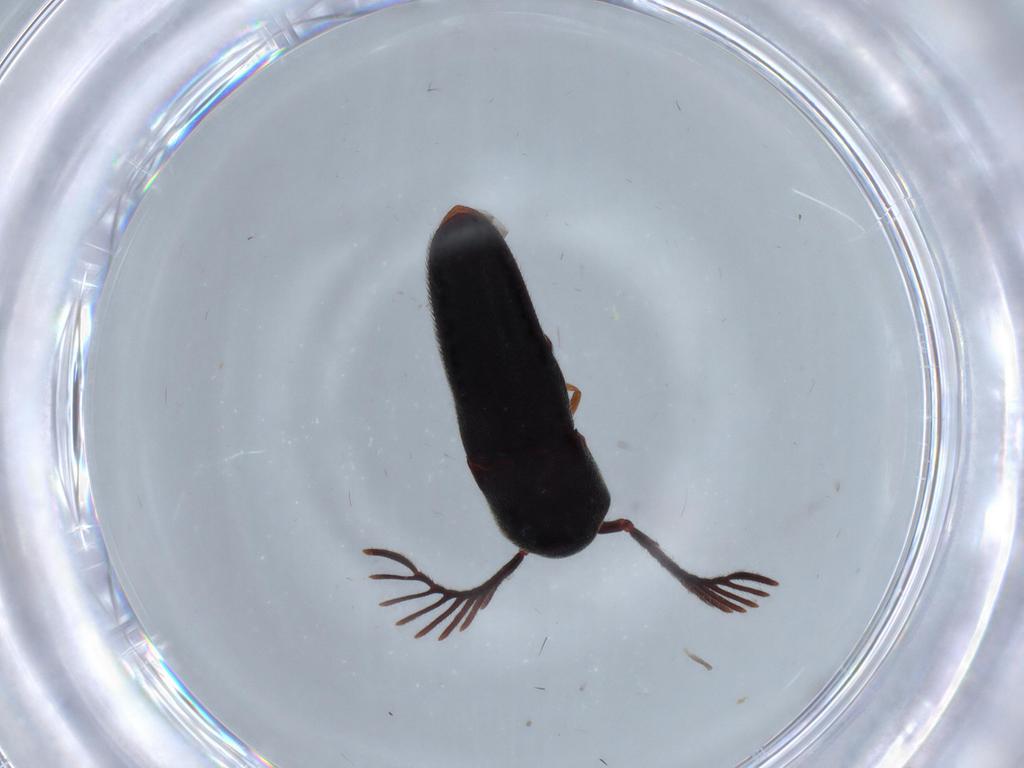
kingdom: Animalia
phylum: Arthropoda
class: Insecta
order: Coleoptera
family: Eucnemidae
